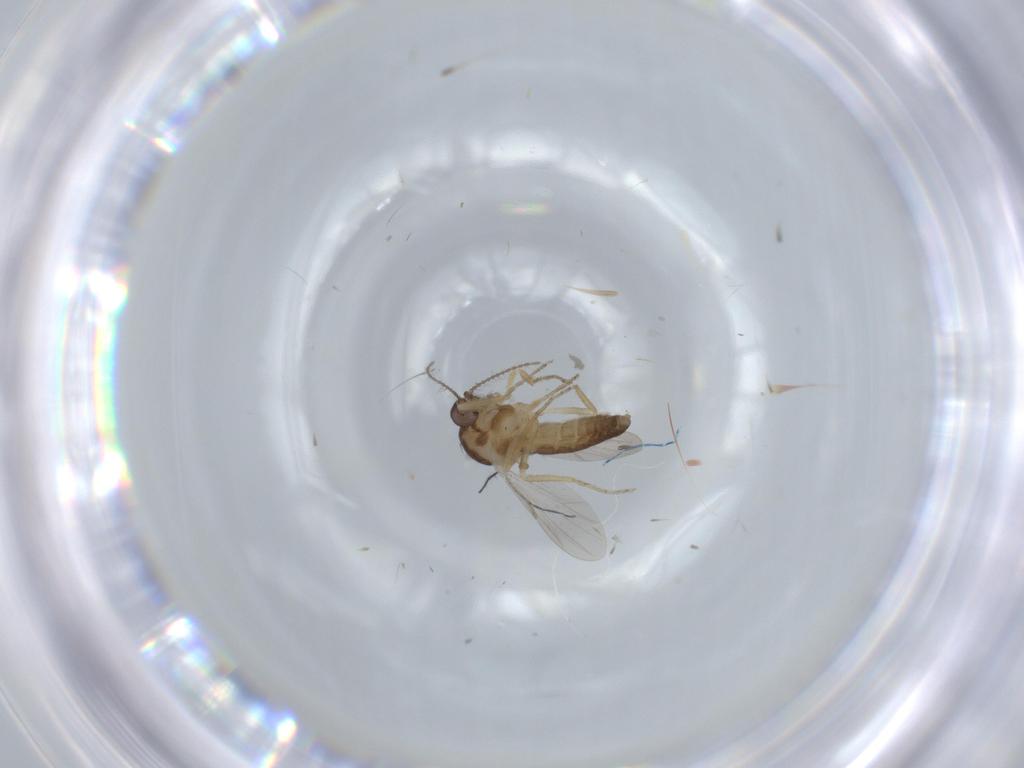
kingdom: Animalia
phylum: Arthropoda
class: Insecta
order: Diptera
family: Ceratopogonidae
